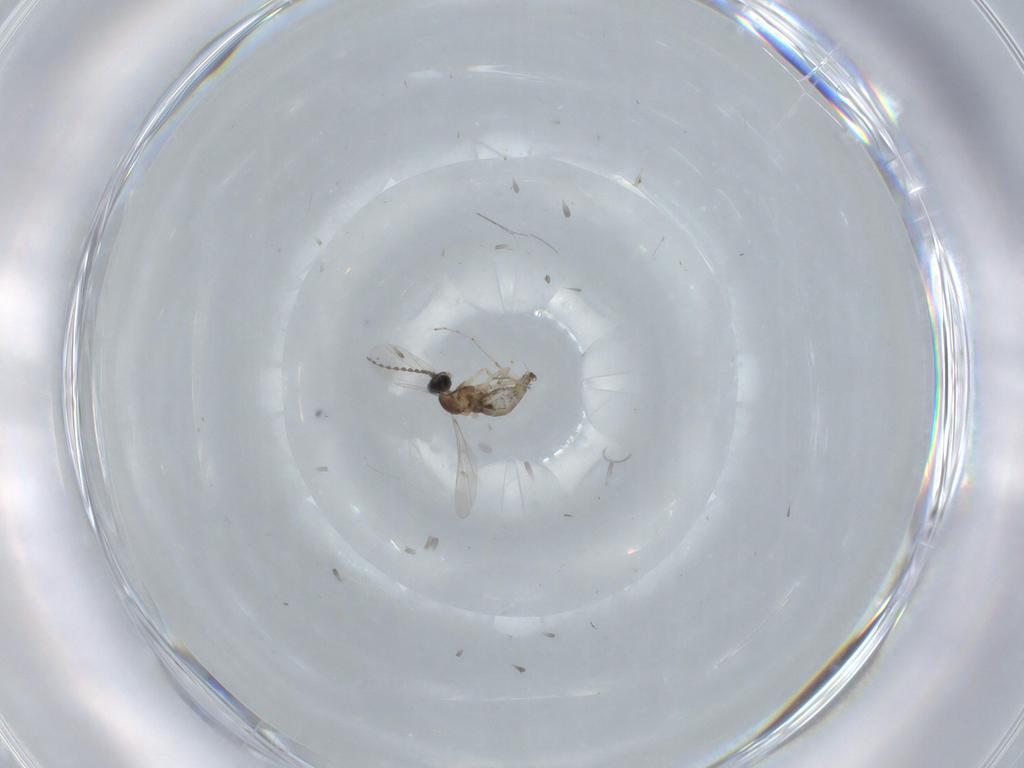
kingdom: Animalia
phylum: Arthropoda
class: Insecta
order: Diptera
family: Cecidomyiidae
